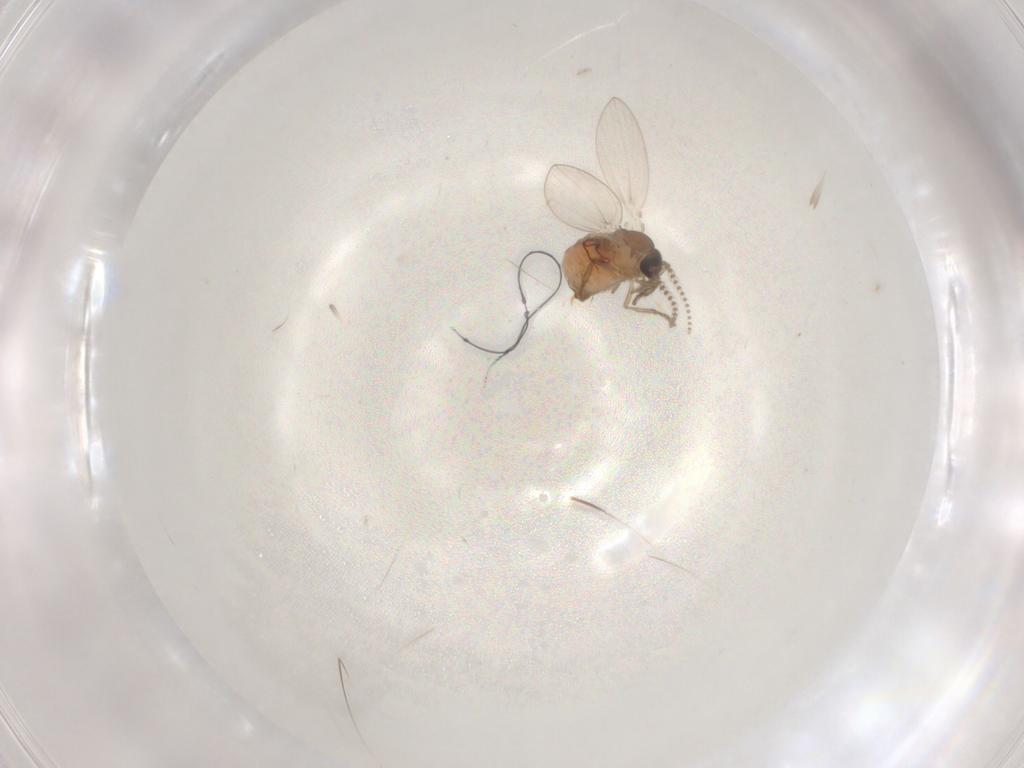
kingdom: Animalia
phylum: Arthropoda
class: Insecta
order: Diptera
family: Psychodidae
